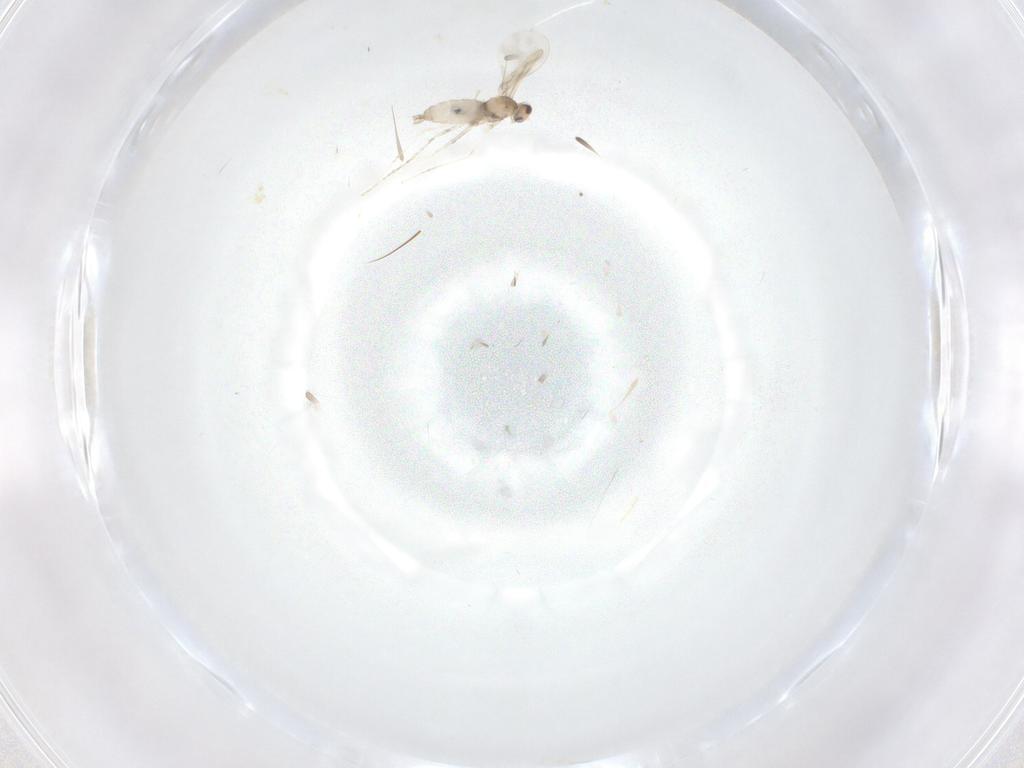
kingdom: Animalia
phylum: Arthropoda
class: Insecta
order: Diptera
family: Cecidomyiidae
